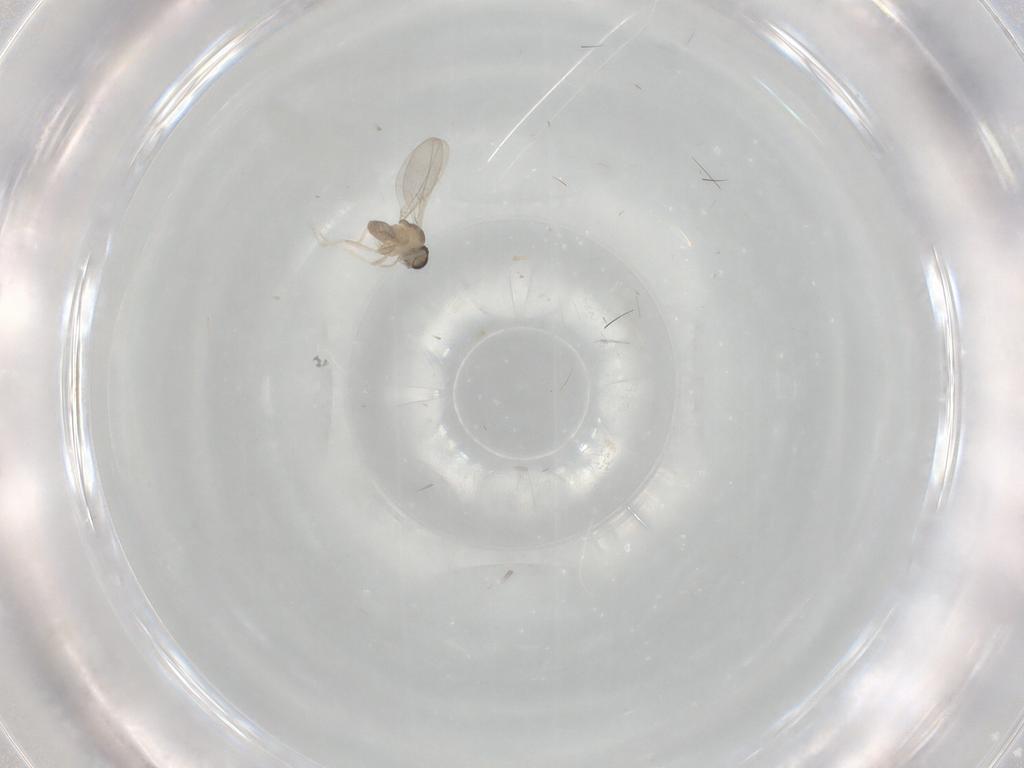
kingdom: Animalia
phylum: Arthropoda
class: Insecta
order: Diptera
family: Cecidomyiidae
